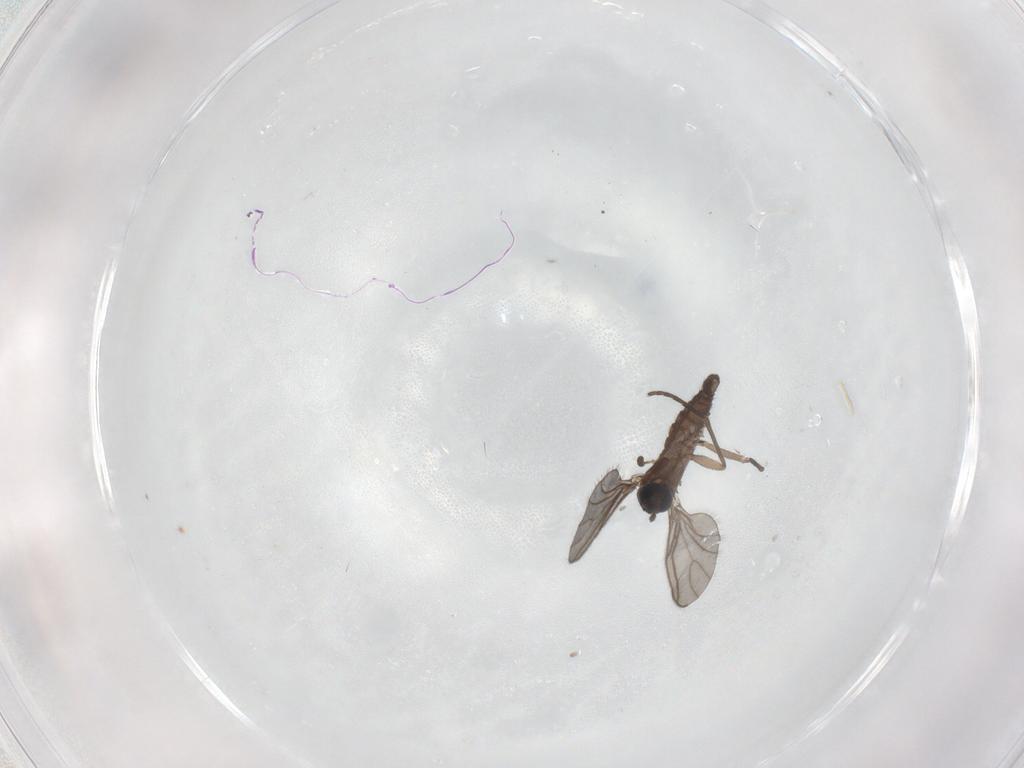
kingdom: Animalia
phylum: Arthropoda
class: Insecta
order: Diptera
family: Sciaridae
